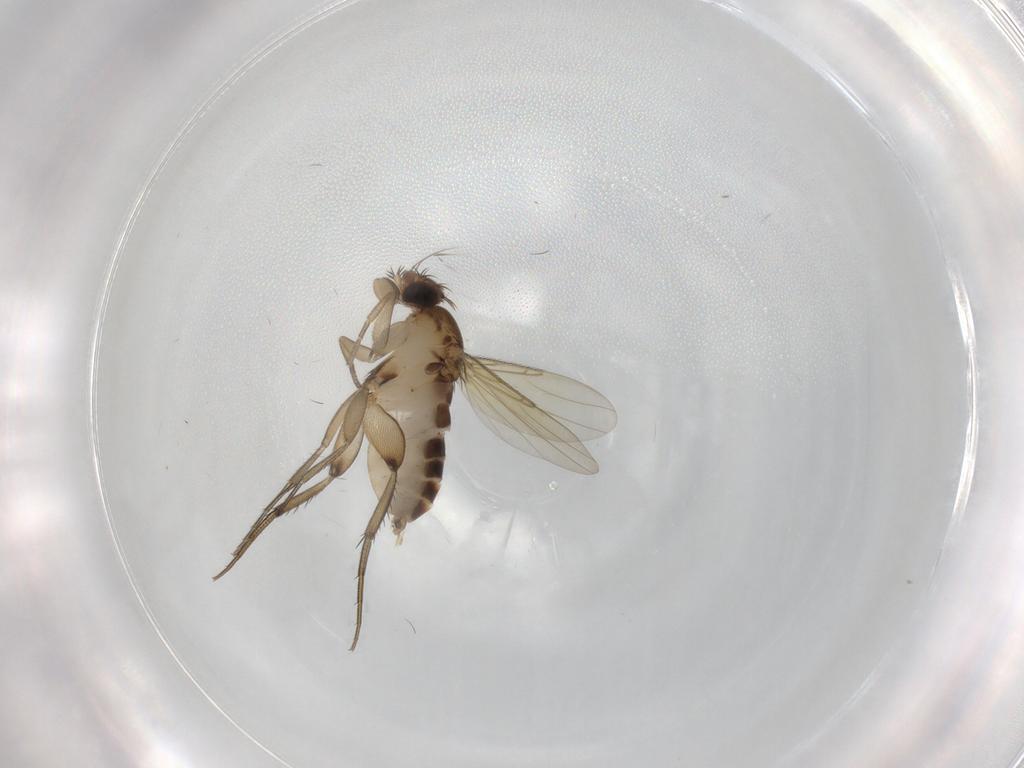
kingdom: Animalia
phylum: Arthropoda
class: Insecta
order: Diptera
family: Phoridae
